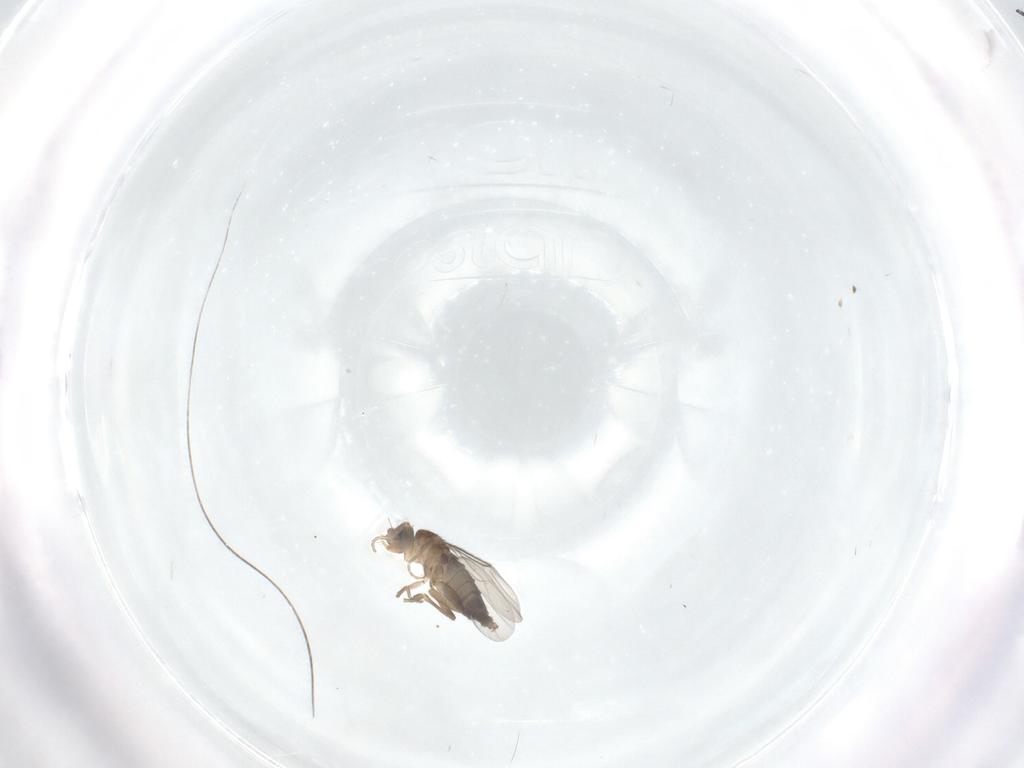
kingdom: Animalia
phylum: Arthropoda
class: Insecta
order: Diptera
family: Phoridae
